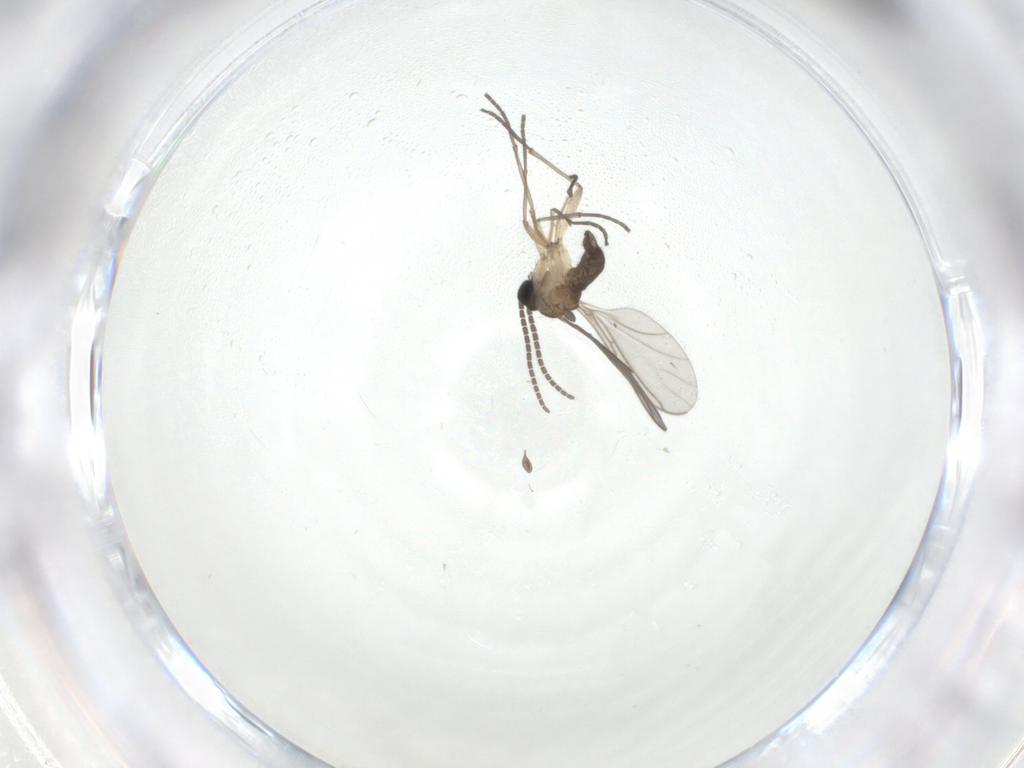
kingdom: Animalia
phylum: Arthropoda
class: Insecta
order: Diptera
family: Sciaridae
